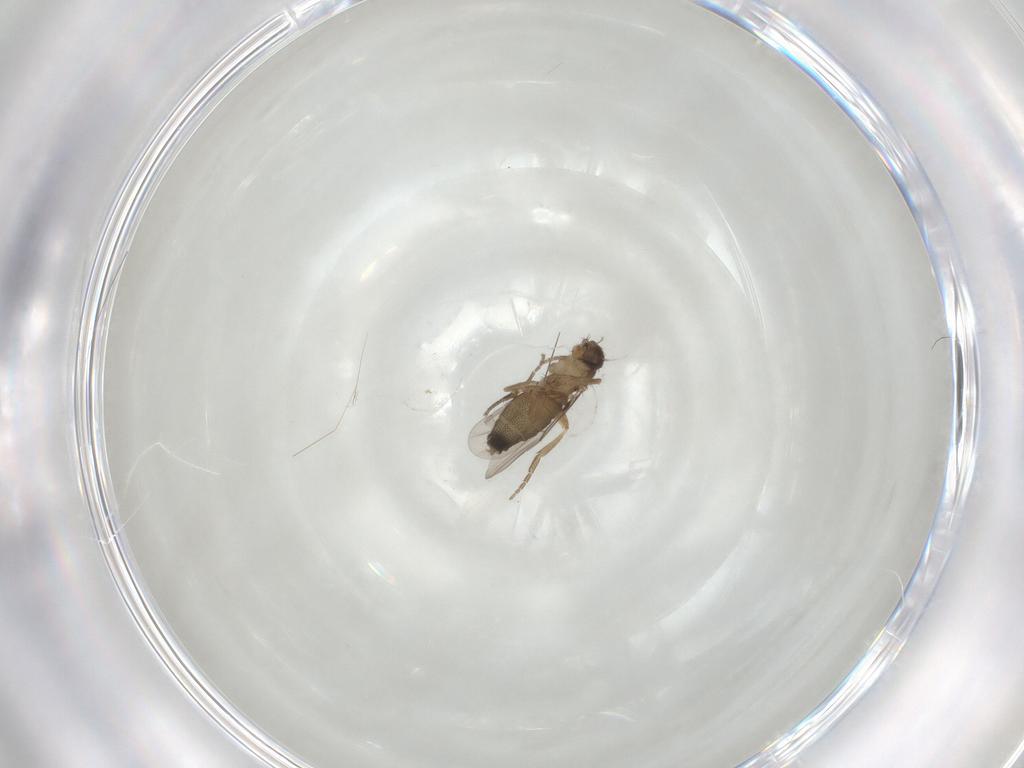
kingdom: Animalia
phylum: Arthropoda
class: Insecta
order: Diptera
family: Phoridae
